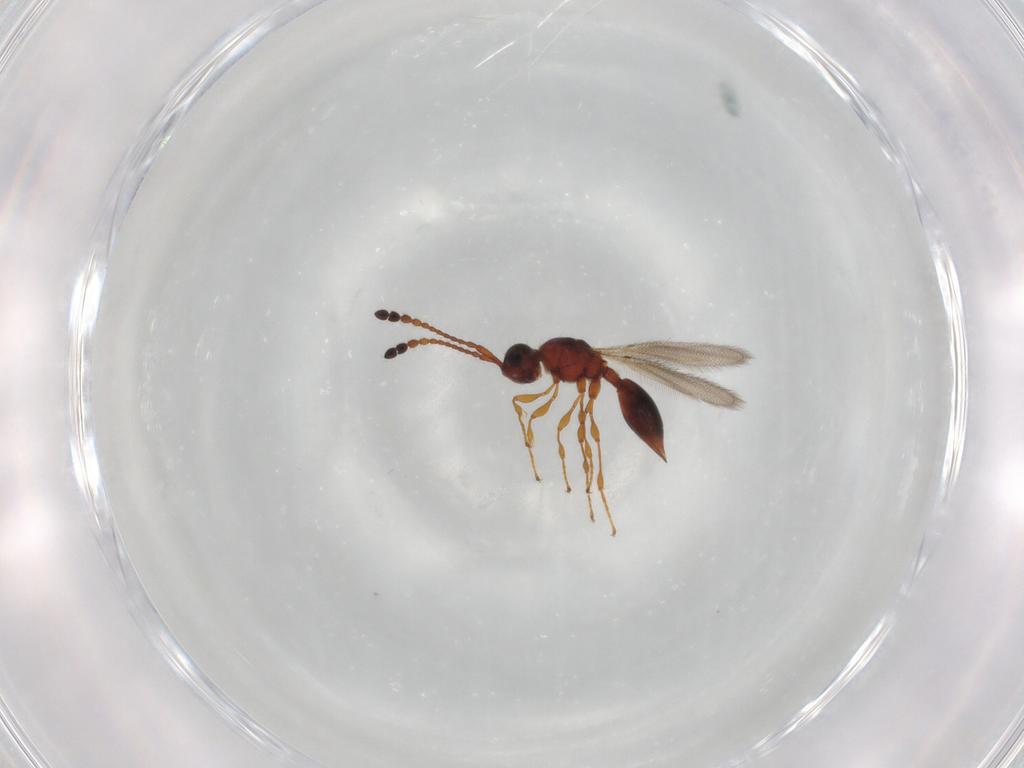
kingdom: Animalia
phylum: Arthropoda
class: Insecta
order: Hymenoptera
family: Diapriidae
